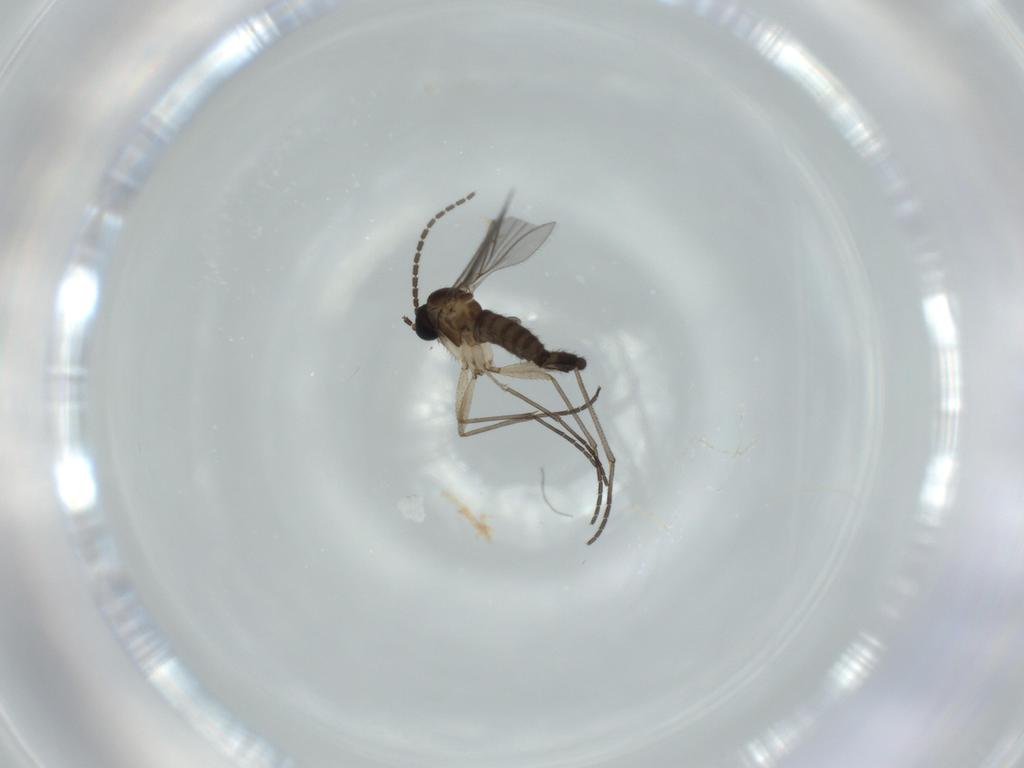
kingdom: Animalia
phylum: Arthropoda
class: Insecta
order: Diptera
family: Sciaridae
